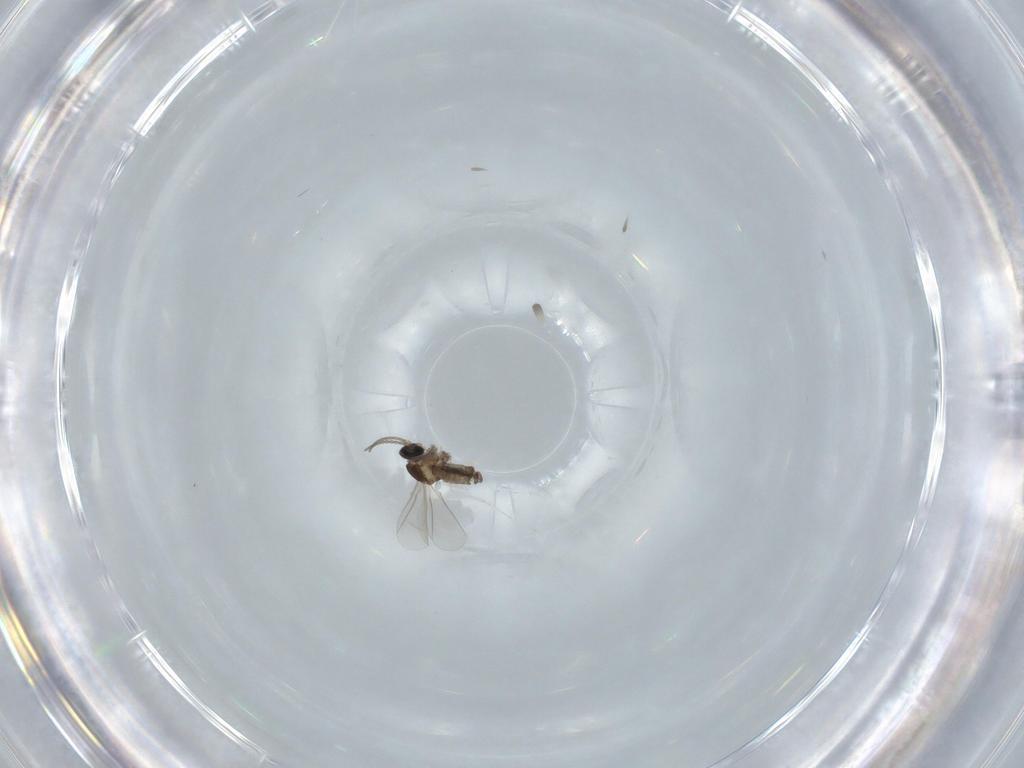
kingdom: Animalia
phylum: Arthropoda
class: Insecta
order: Diptera
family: Cecidomyiidae
